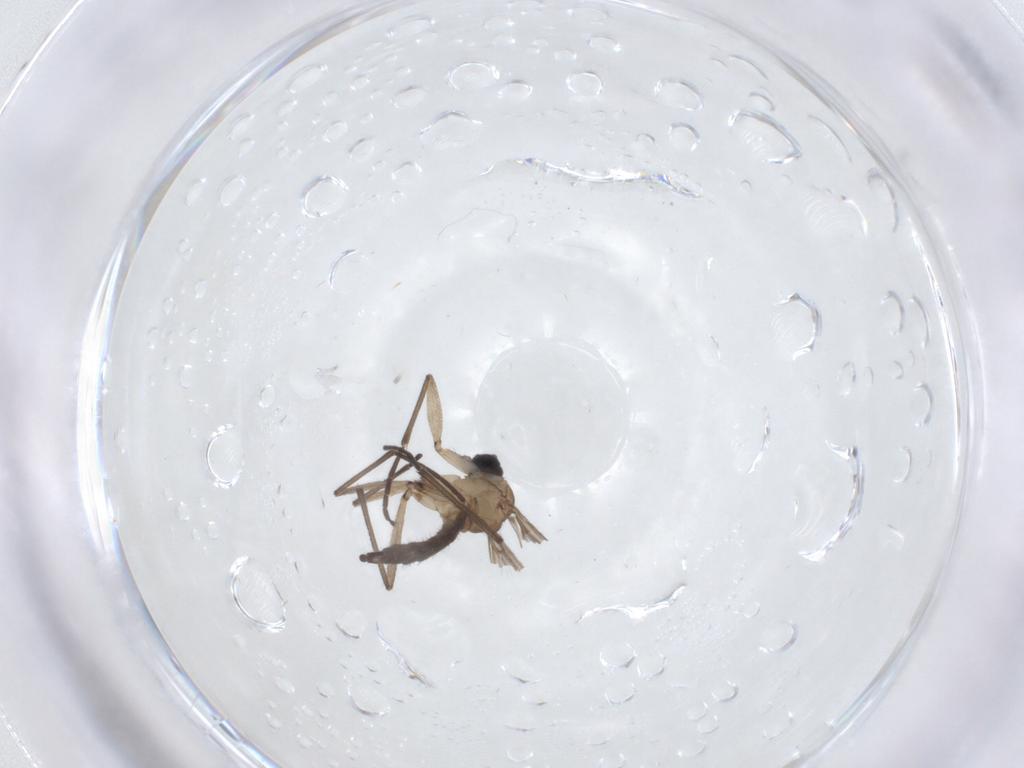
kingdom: Animalia
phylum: Arthropoda
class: Insecta
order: Diptera
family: Sciaridae
